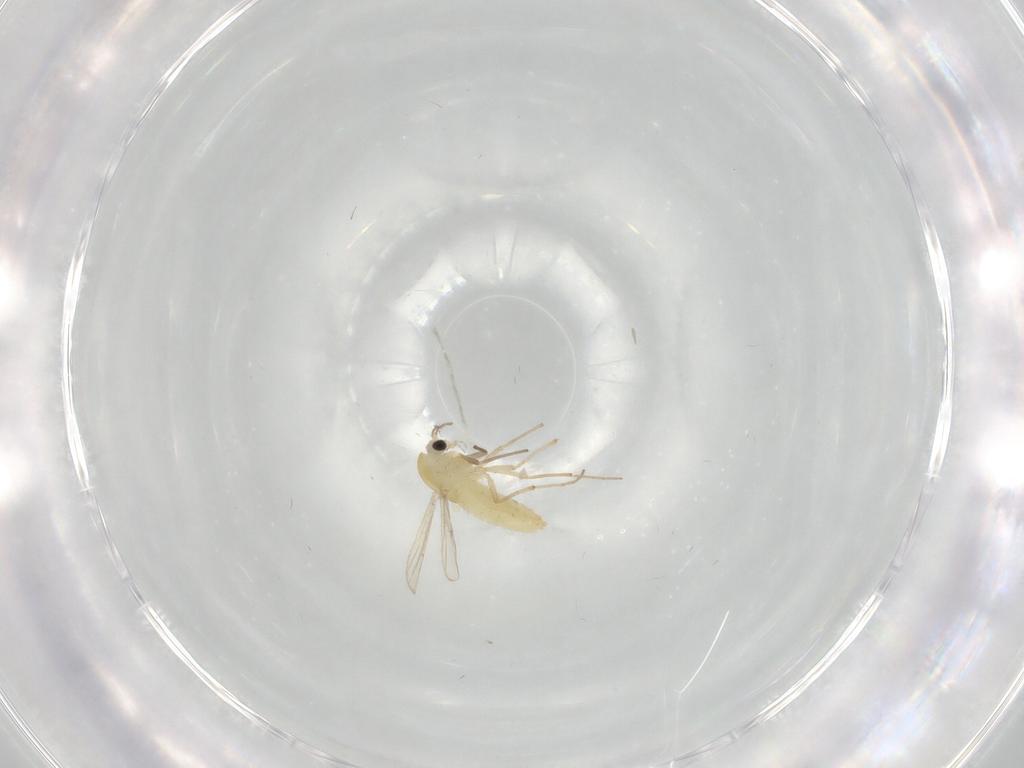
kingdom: Animalia
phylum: Arthropoda
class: Insecta
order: Diptera
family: Chironomidae
